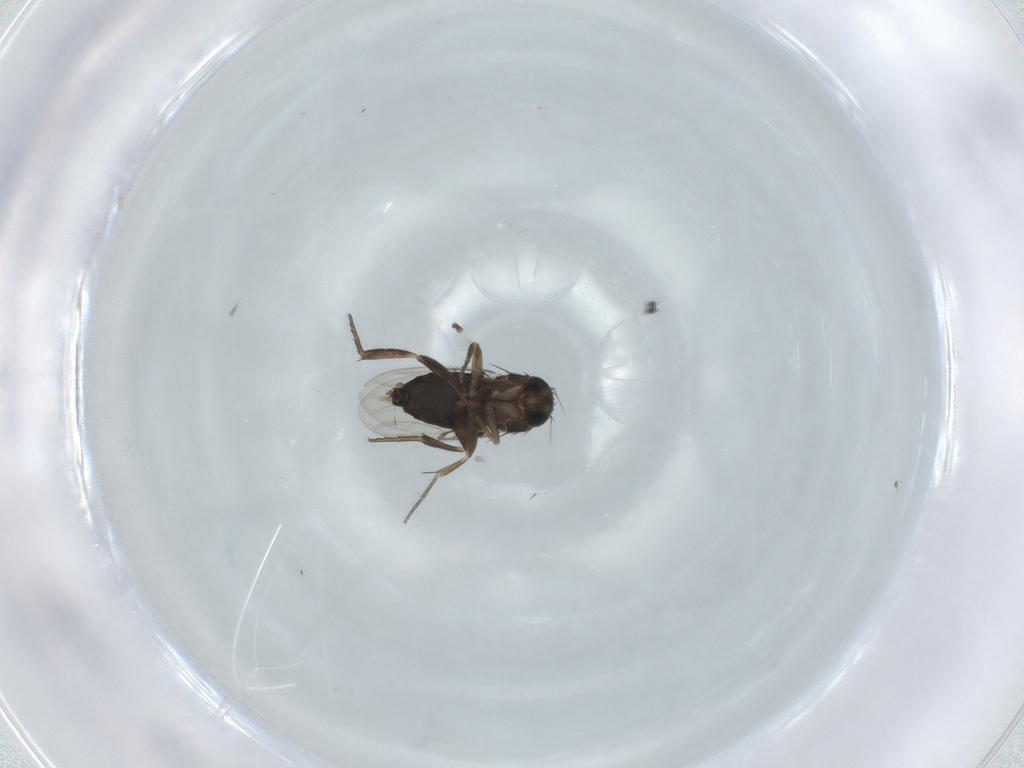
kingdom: Animalia
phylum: Arthropoda
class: Insecta
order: Diptera
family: Phoridae
